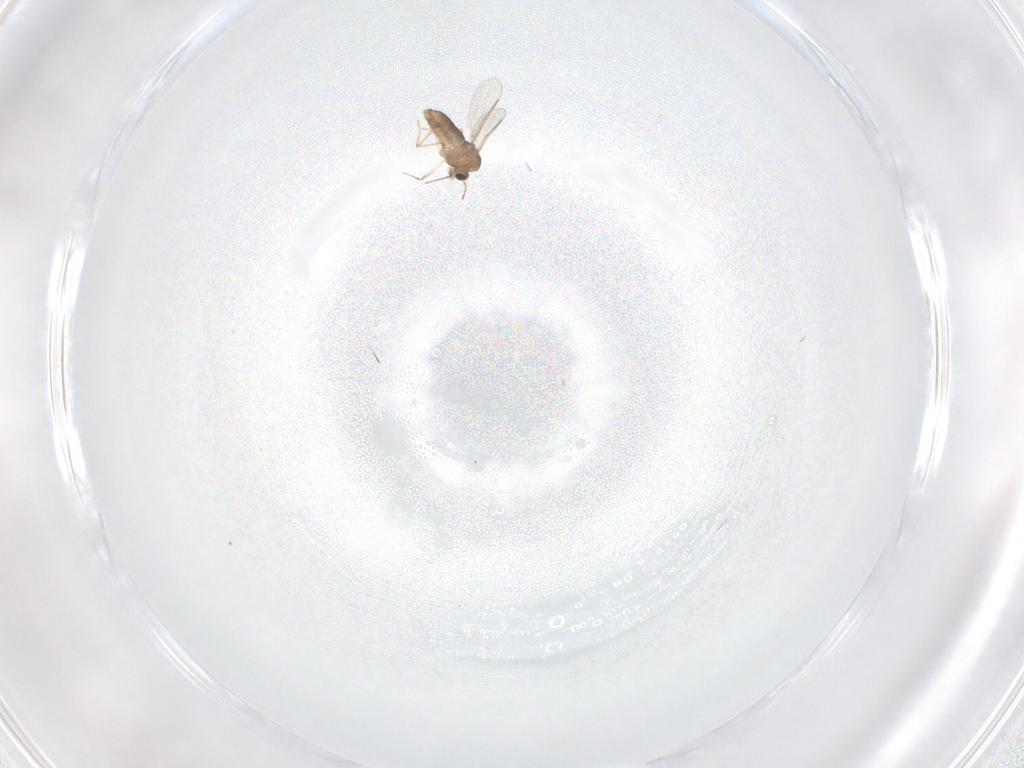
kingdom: Animalia
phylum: Arthropoda
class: Insecta
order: Diptera
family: Chironomidae
